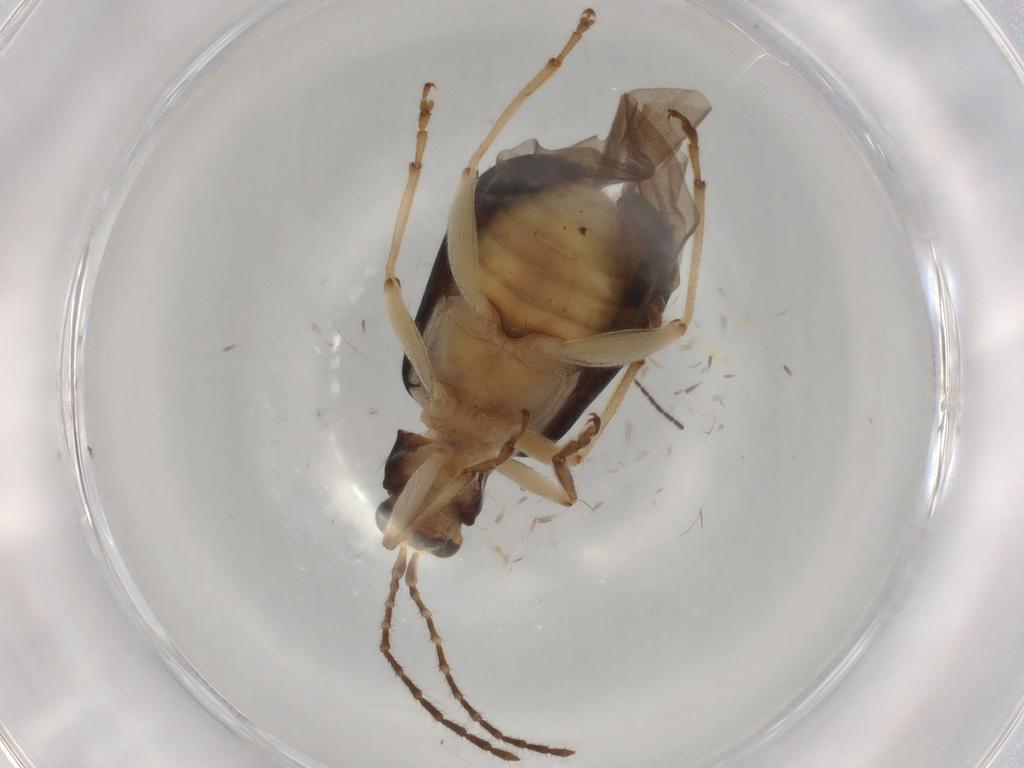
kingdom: Animalia
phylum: Arthropoda
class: Insecta
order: Coleoptera
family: Chrysomelidae
